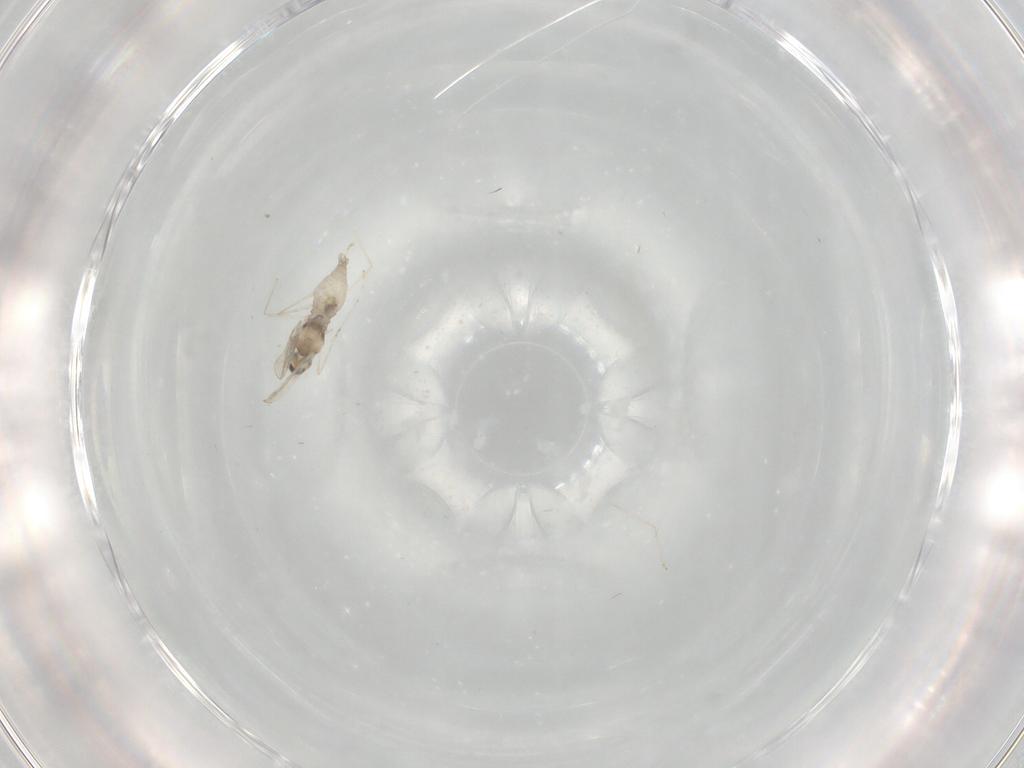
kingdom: Animalia
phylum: Arthropoda
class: Insecta
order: Diptera
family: Cecidomyiidae
